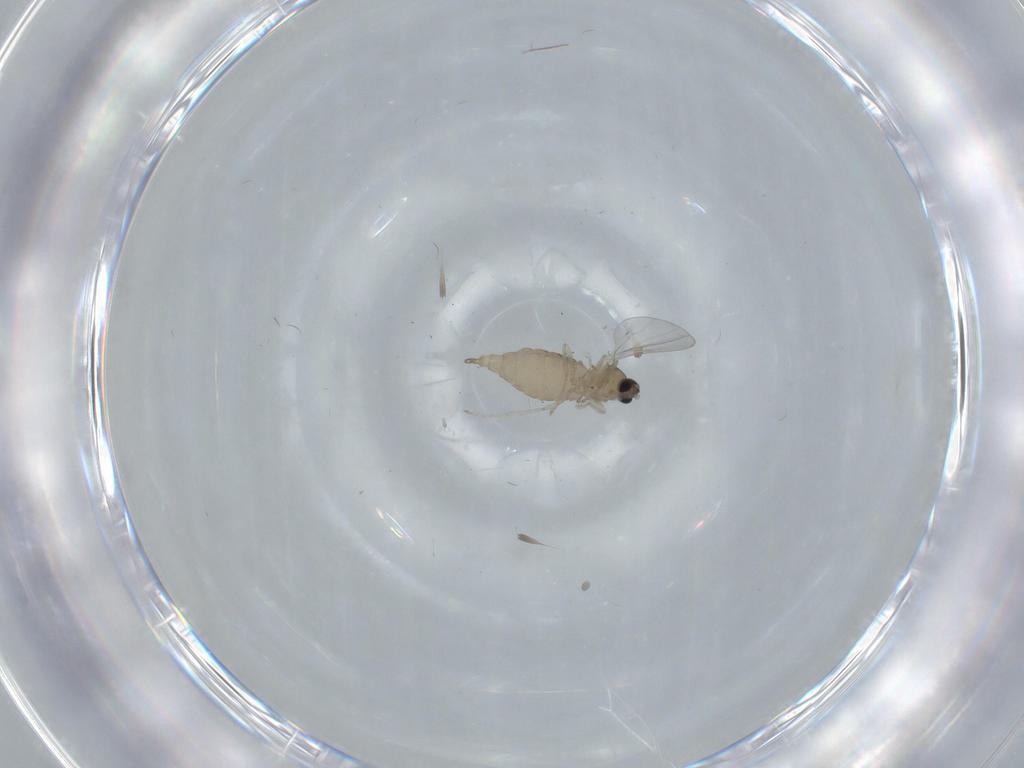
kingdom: Animalia
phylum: Arthropoda
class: Insecta
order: Diptera
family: Cecidomyiidae
